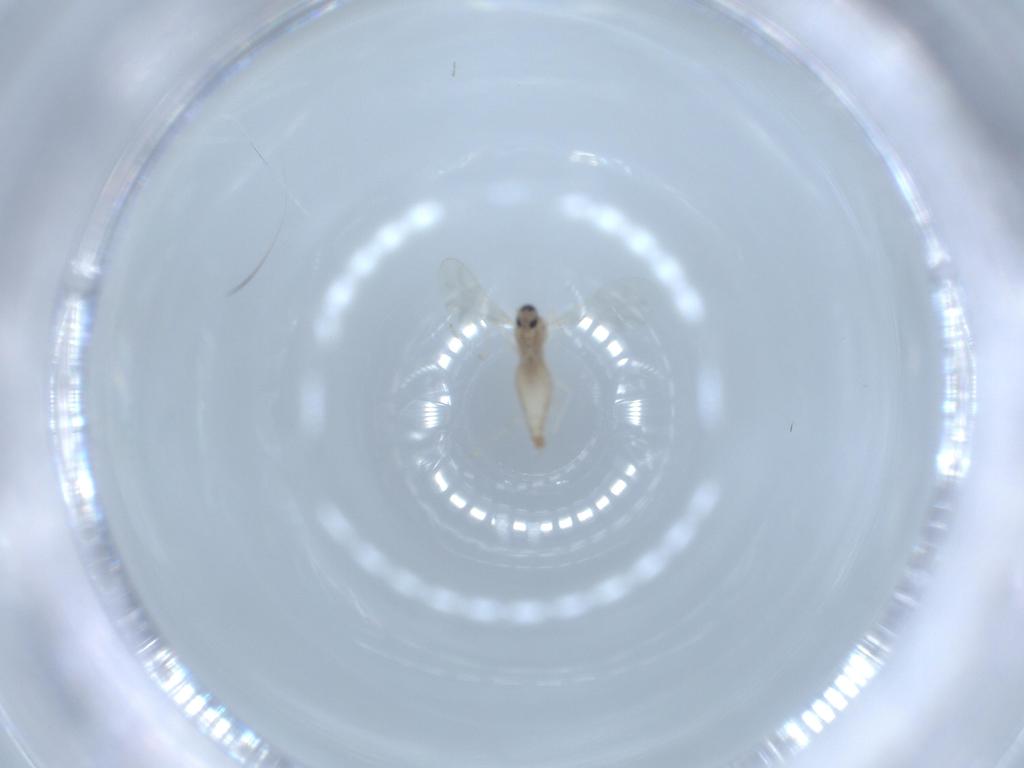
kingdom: Animalia
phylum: Arthropoda
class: Insecta
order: Diptera
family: Cecidomyiidae
